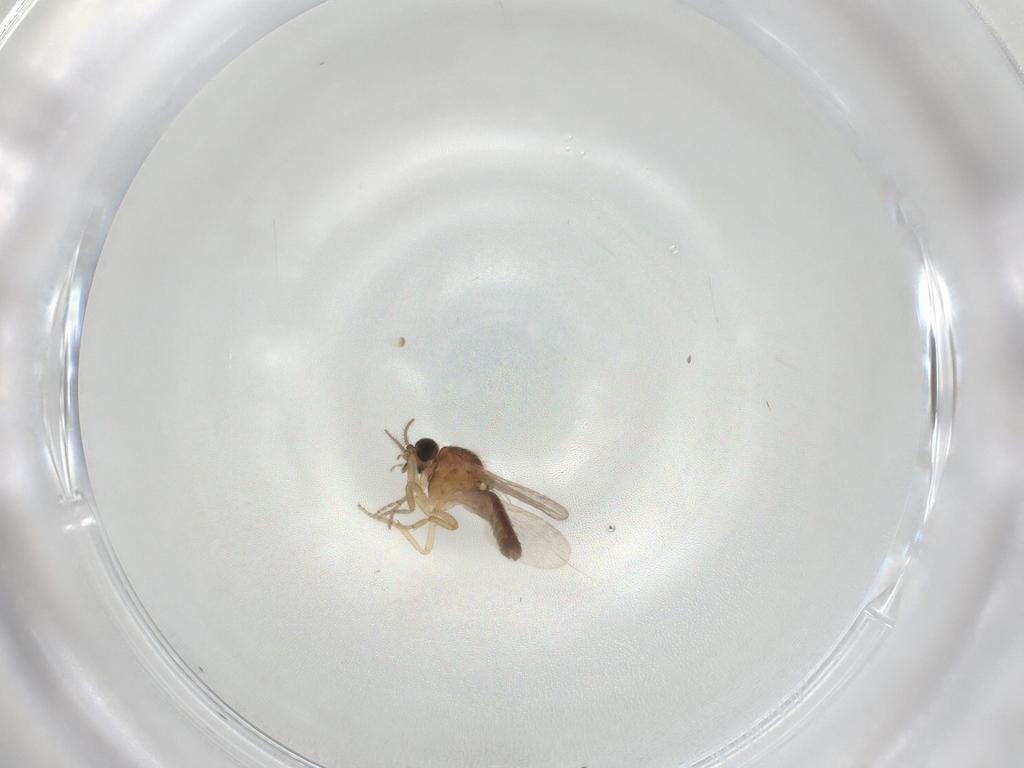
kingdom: Animalia
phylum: Arthropoda
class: Insecta
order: Diptera
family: Ceratopogonidae
